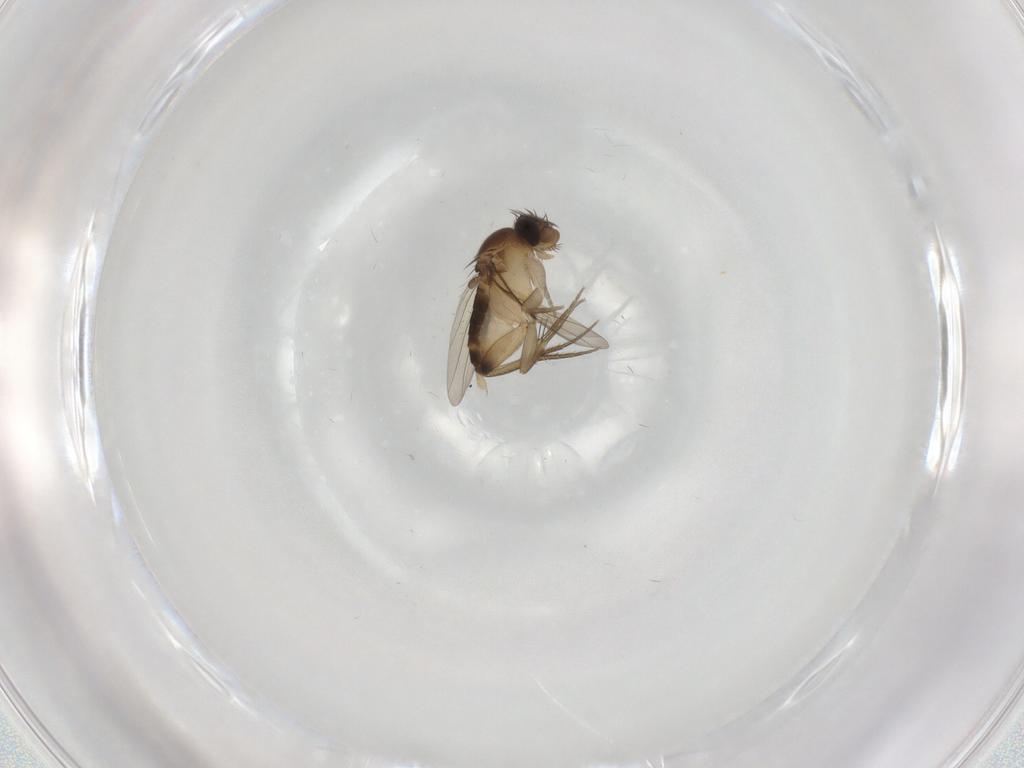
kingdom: Animalia
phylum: Arthropoda
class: Insecta
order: Diptera
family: Phoridae
